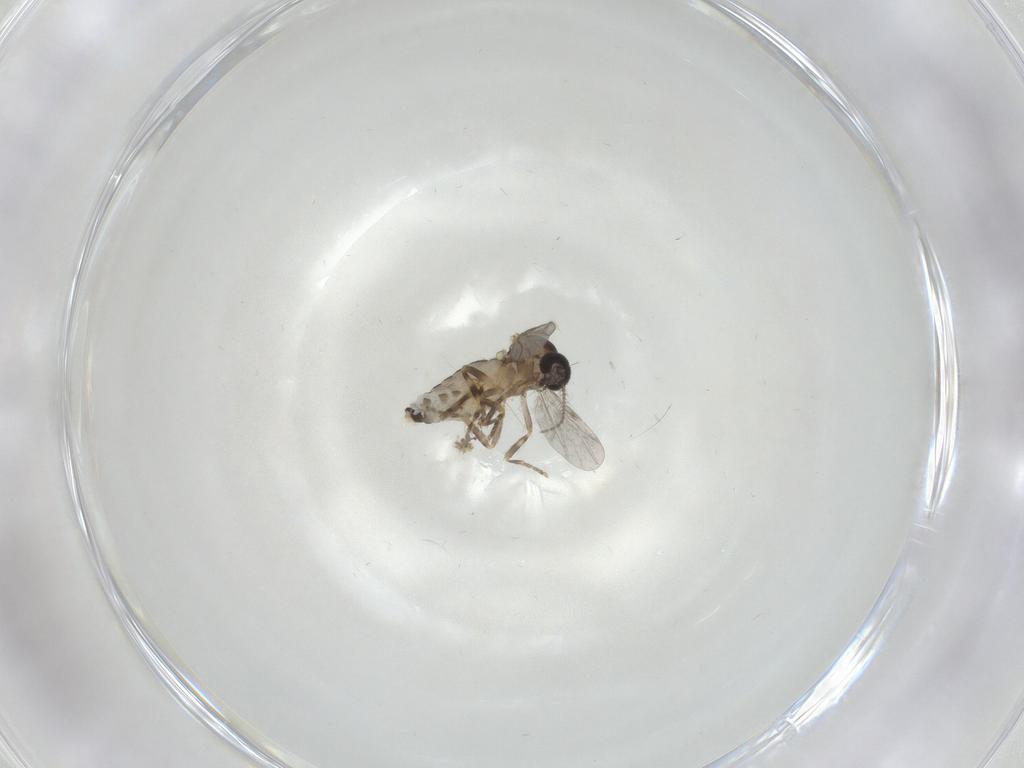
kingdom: Animalia
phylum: Arthropoda
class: Insecta
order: Diptera
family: Ceratopogonidae
